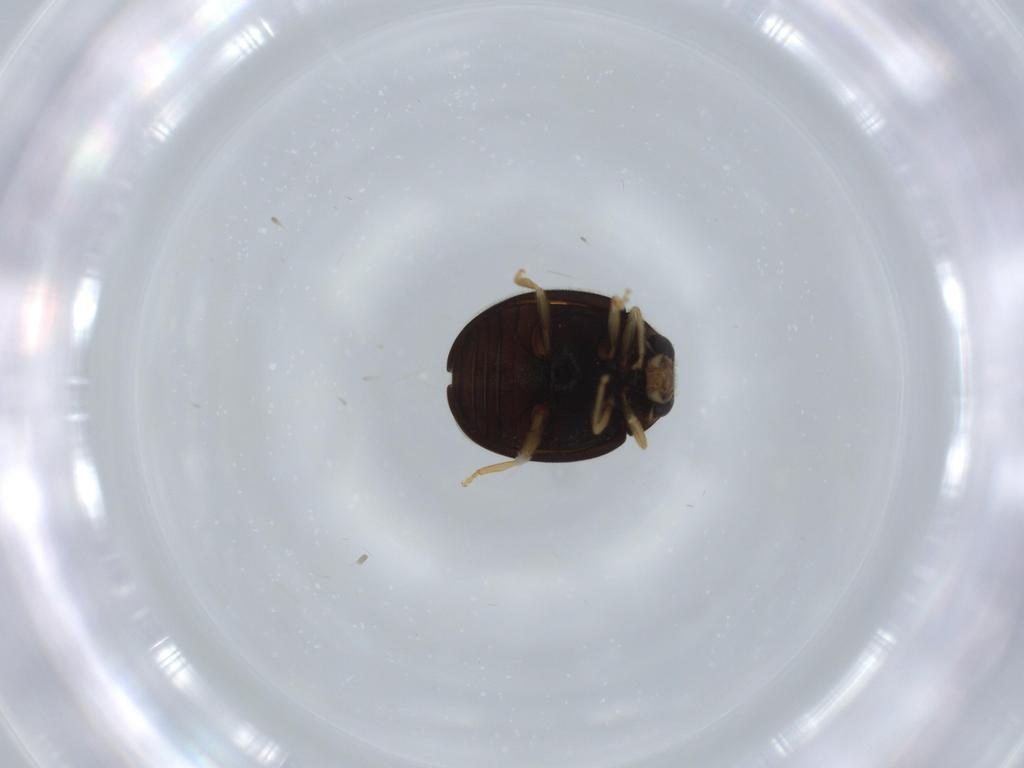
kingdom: Animalia
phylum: Arthropoda
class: Insecta
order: Coleoptera
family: Coccinellidae
